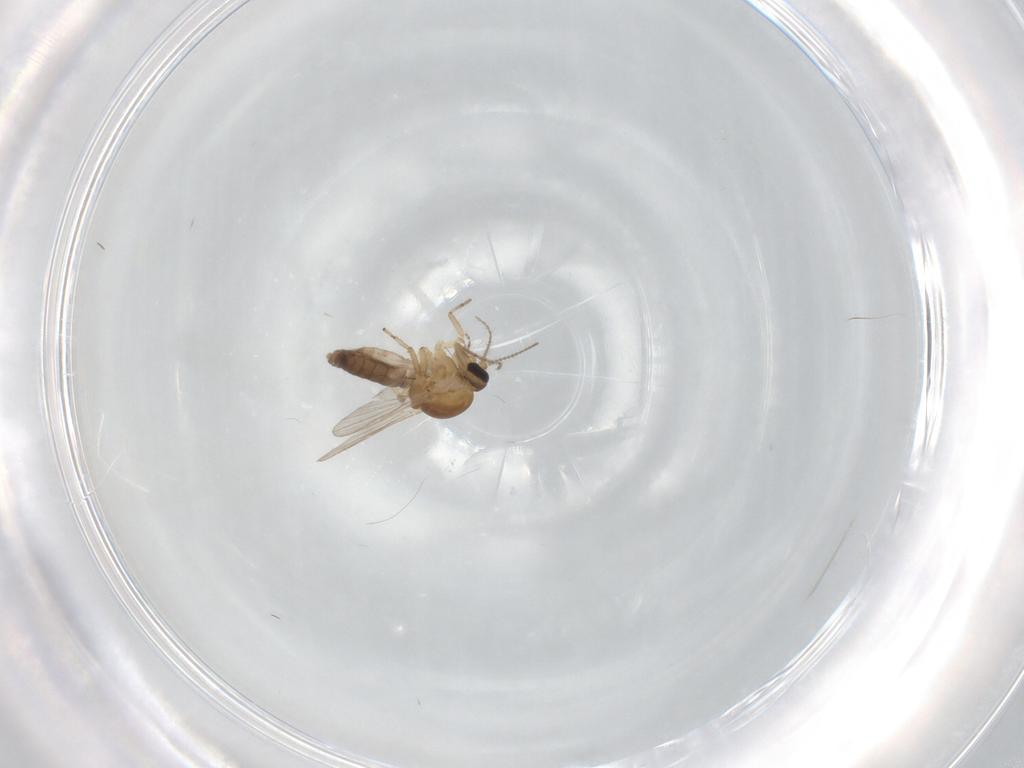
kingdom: Animalia
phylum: Arthropoda
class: Insecta
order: Diptera
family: Ceratopogonidae
